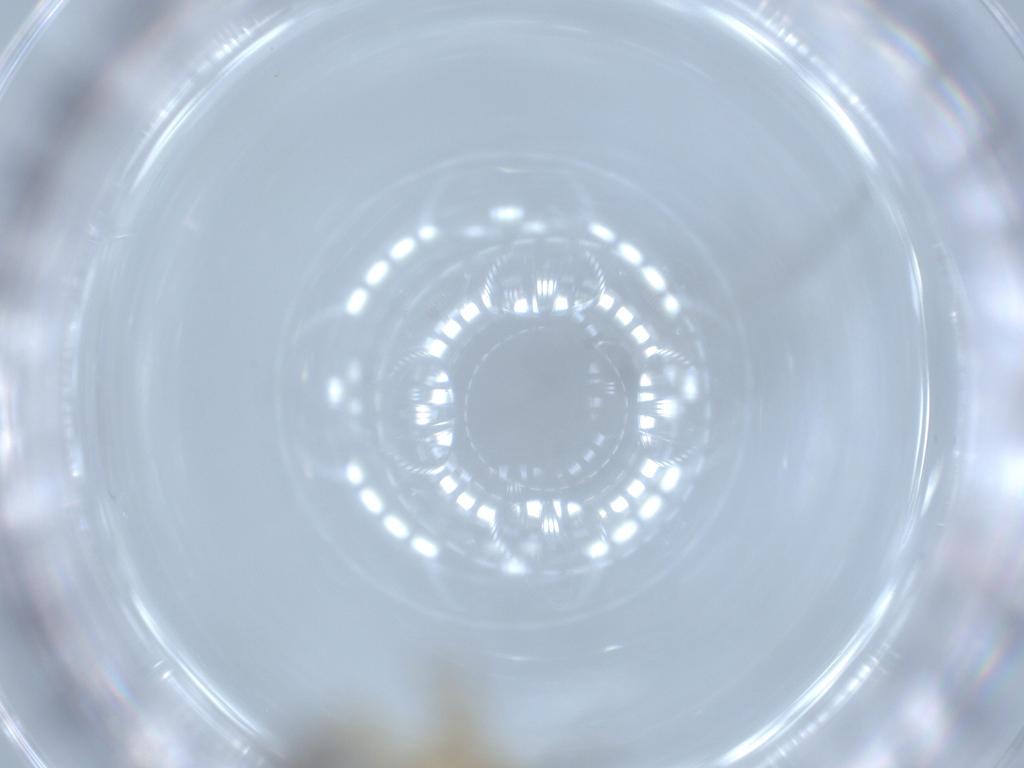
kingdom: Animalia
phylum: Arthropoda
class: Insecta
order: Neuroptera
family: Coniopterygidae
